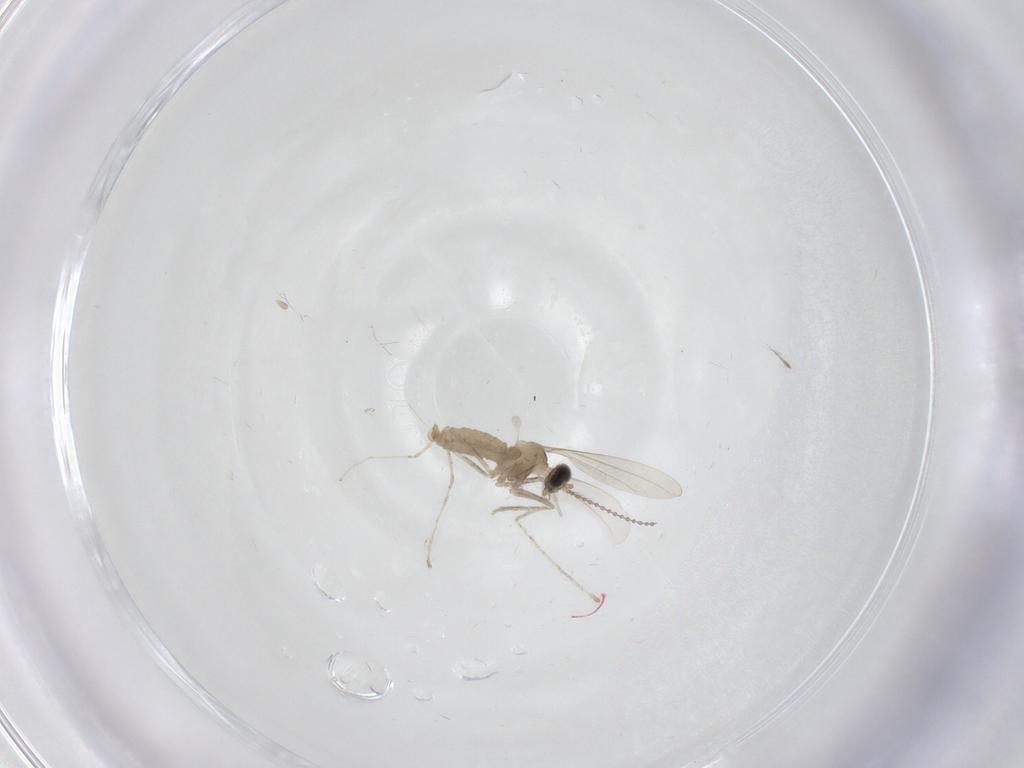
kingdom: Animalia
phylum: Arthropoda
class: Insecta
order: Diptera
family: Cecidomyiidae
